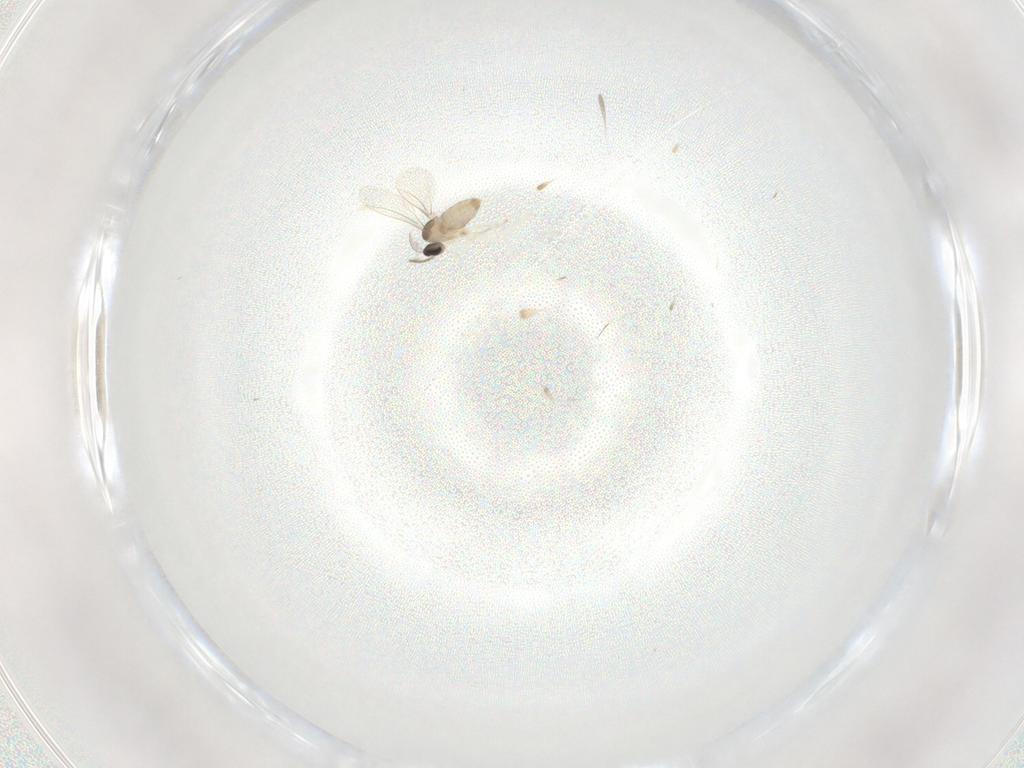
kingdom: Animalia
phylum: Arthropoda
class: Insecta
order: Diptera
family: Cecidomyiidae
